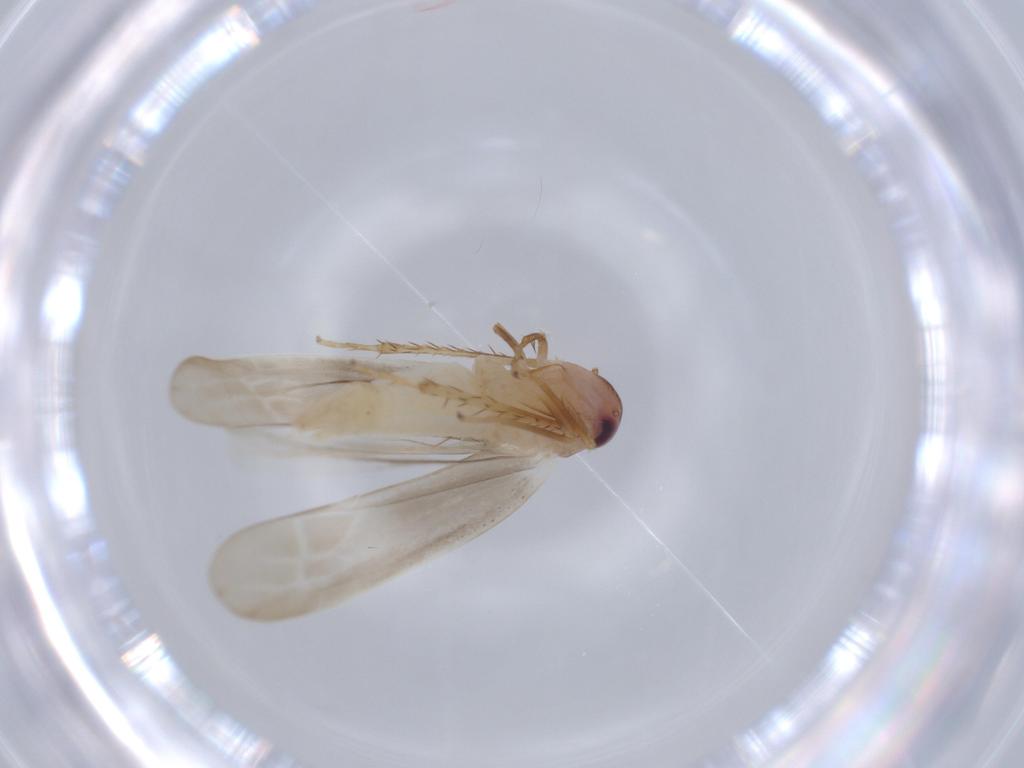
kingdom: Animalia
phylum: Arthropoda
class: Insecta
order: Hemiptera
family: Cicadellidae
